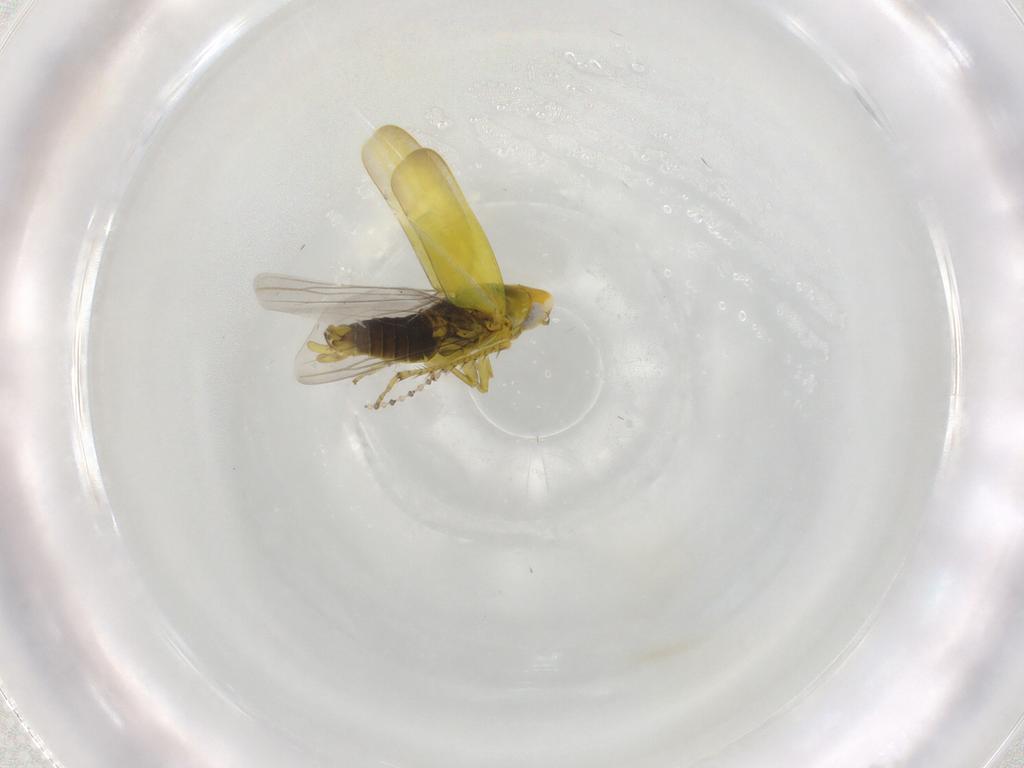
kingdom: Animalia
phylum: Arthropoda
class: Insecta
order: Hemiptera
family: Cicadellidae
